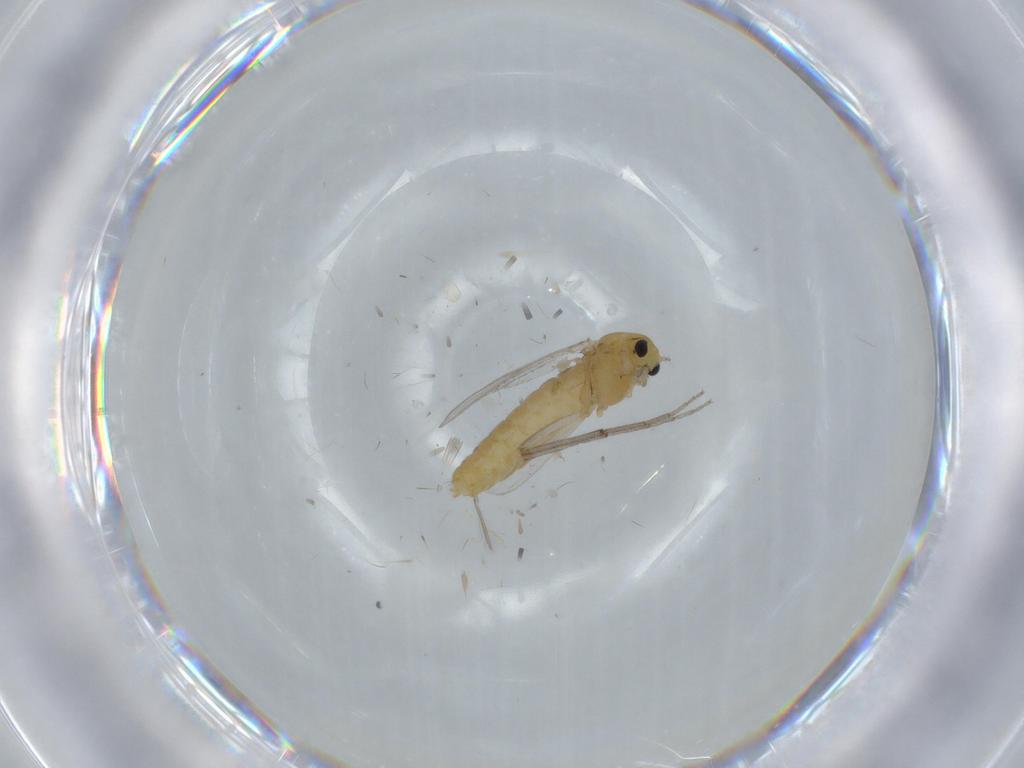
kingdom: Animalia
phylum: Arthropoda
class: Insecta
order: Diptera
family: Chironomidae
